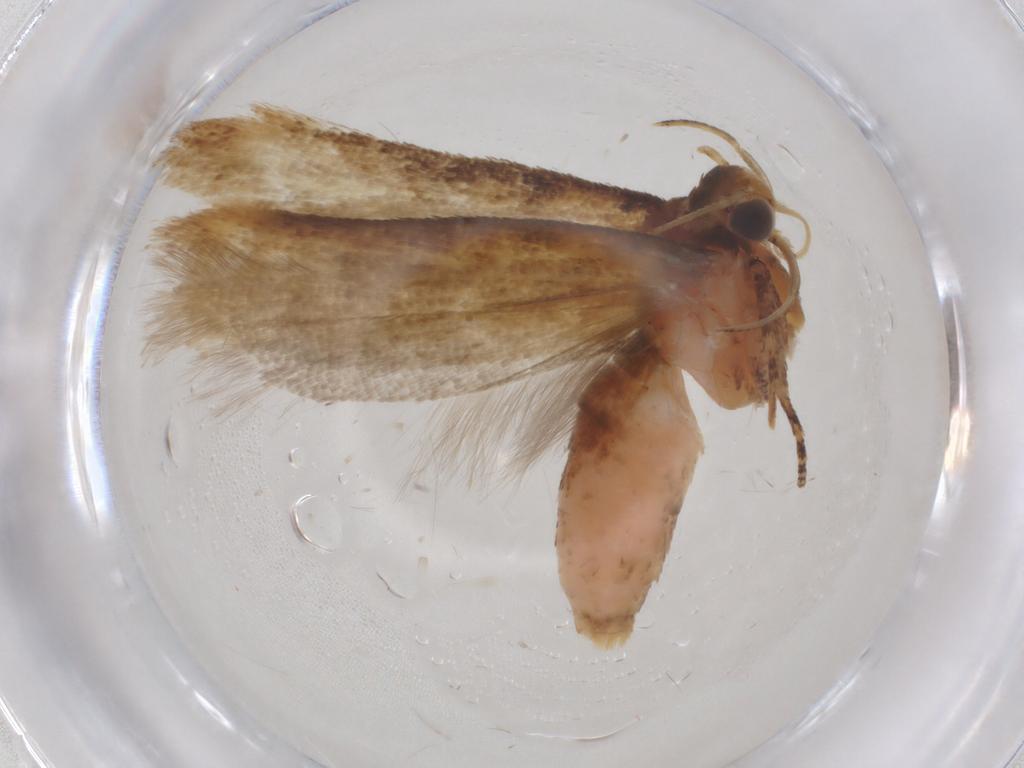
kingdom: Animalia
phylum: Arthropoda
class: Insecta
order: Lepidoptera
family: Gelechiidae
